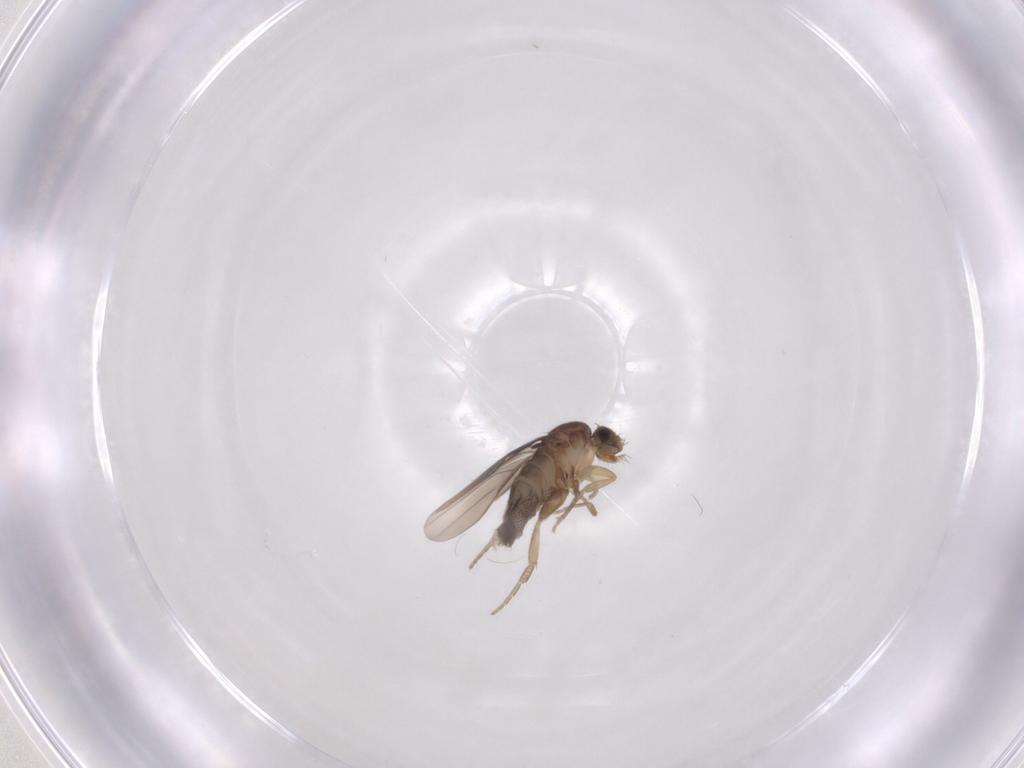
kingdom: Animalia
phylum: Arthropoda
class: Insecta
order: Diptera
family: Phoridae
